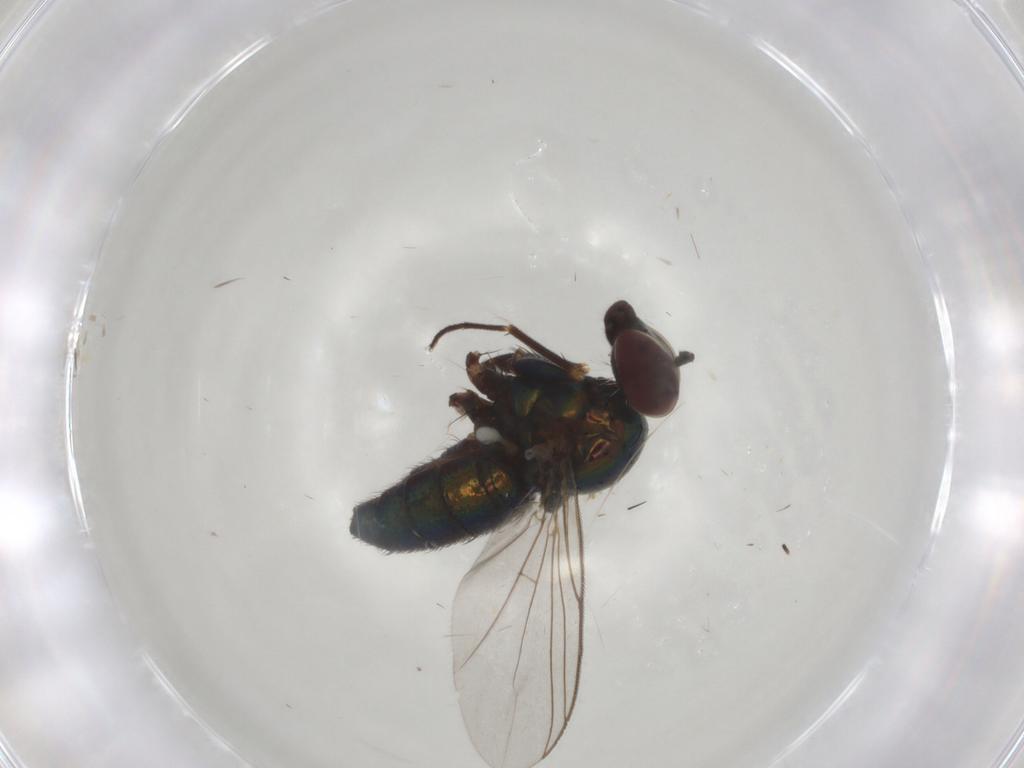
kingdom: Animalia
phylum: Arthropoda
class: Insecta
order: Diptera
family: Dolichopodidae
